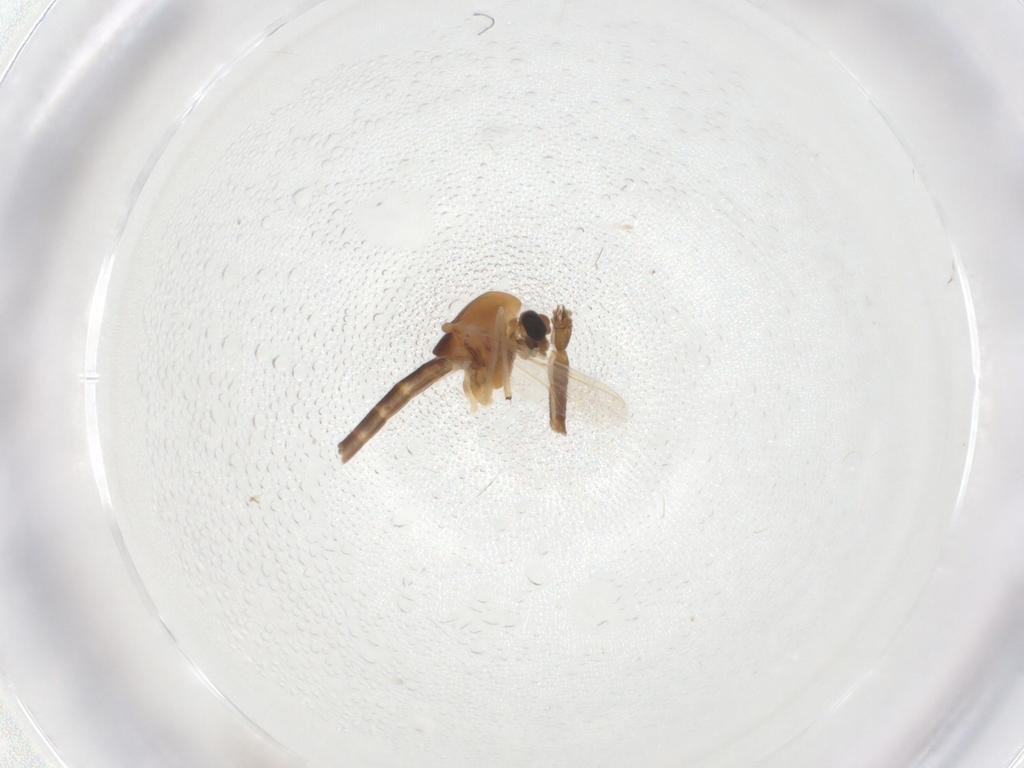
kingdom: Animalia
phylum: Arthropoda
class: Insecta
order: Diptera
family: Chironomidae
